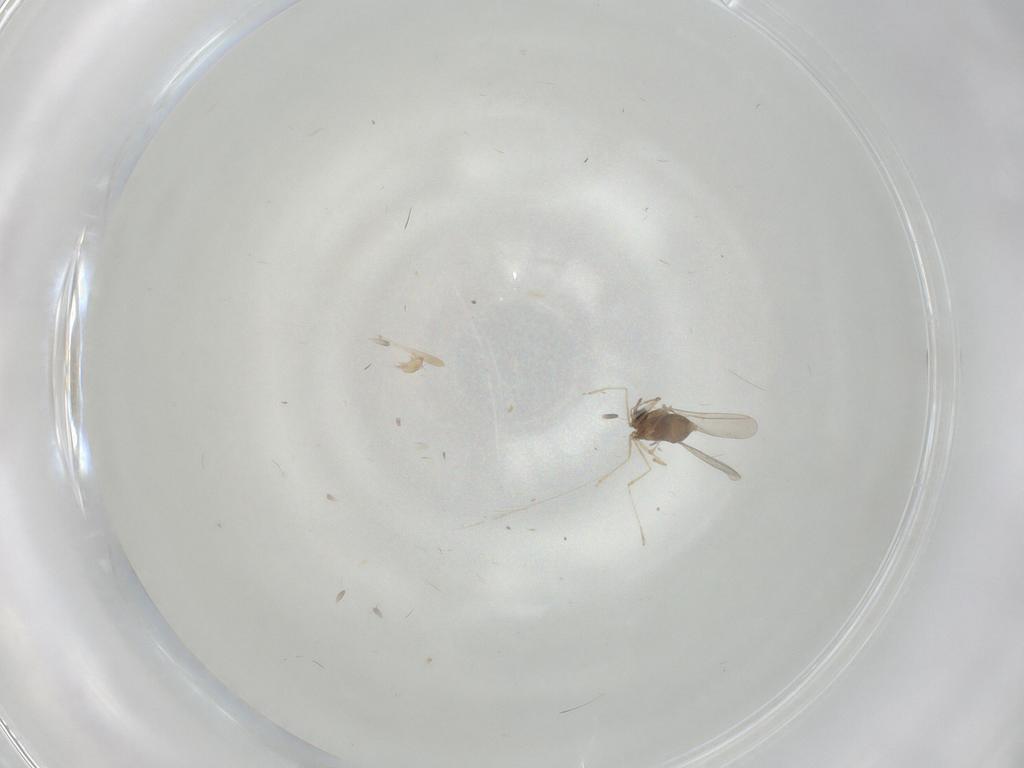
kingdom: Animalia
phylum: Arthropoda
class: Insecta
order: Diptera
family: Cecidomyiidae
